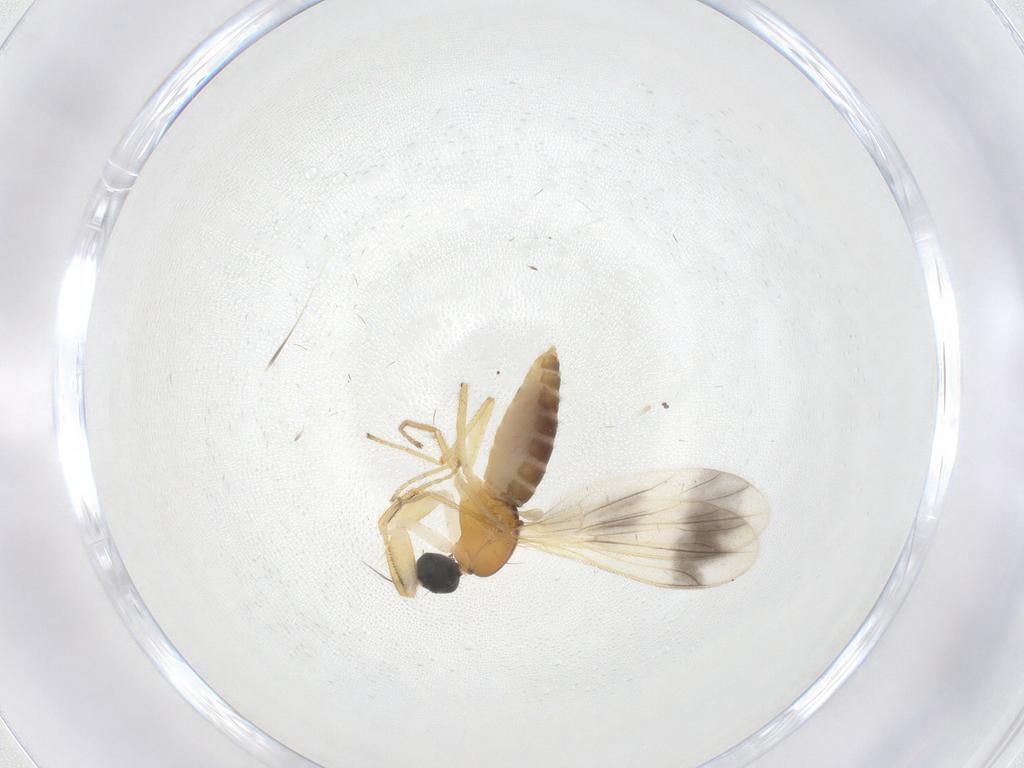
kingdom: Animalia
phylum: Arthropoda
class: Insecta
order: Diptera
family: Empididae
